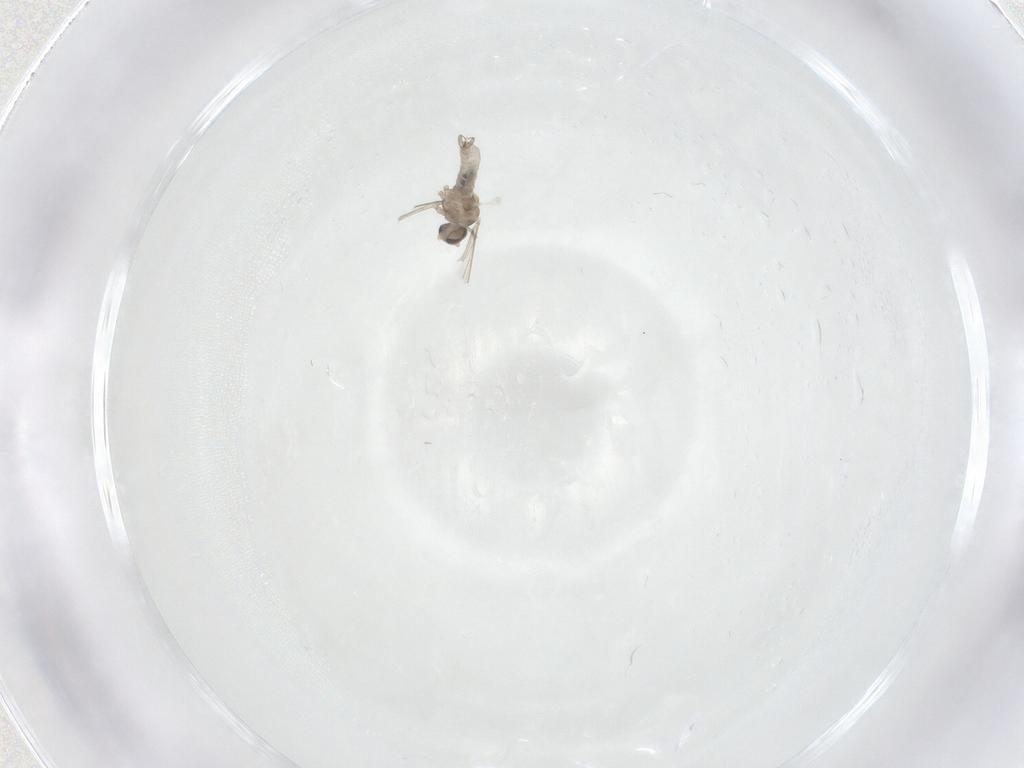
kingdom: Animalia
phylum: Arthropoda
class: Insecta
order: Diptera
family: Cecidomyiidae
